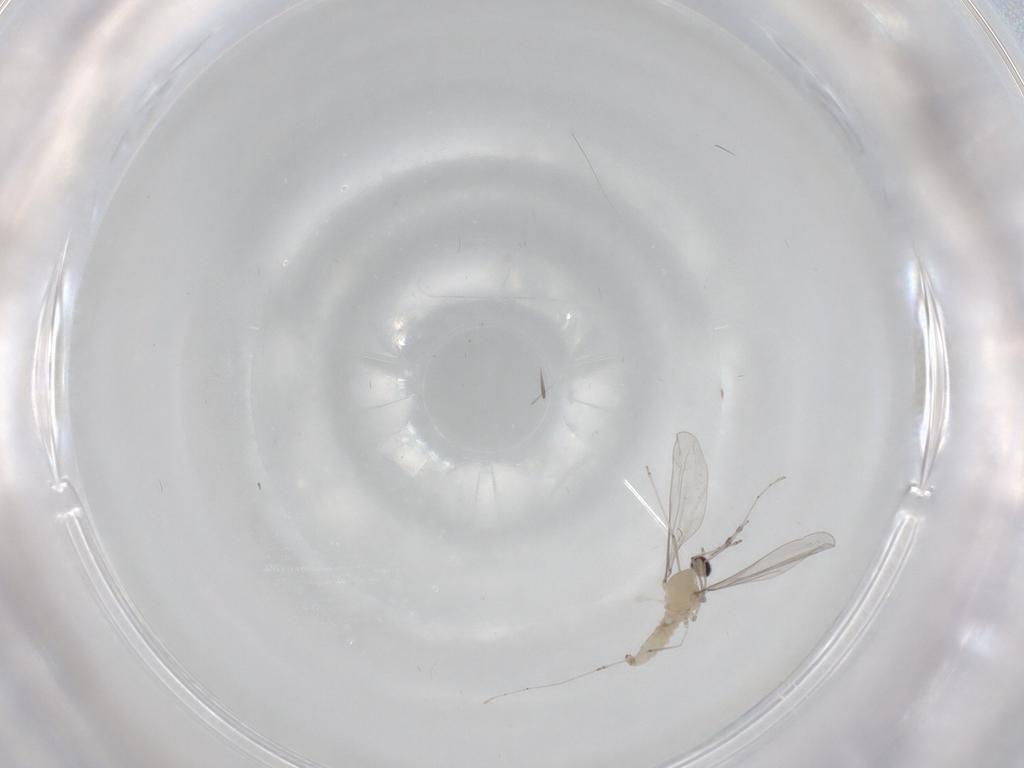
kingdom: Animalia
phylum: Arthropoda
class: Insecta
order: Diptera
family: Cecidomyiidae
